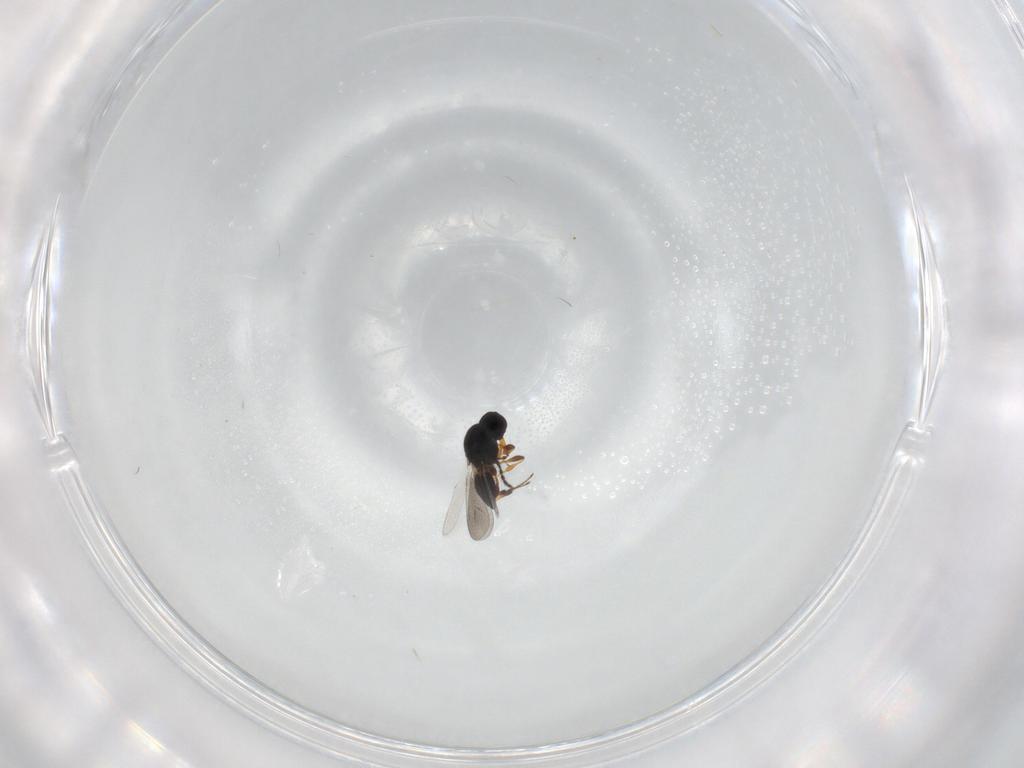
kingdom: Animalia
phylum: Arthropoda
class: Insecta
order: Hymenoptera
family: Platygastridae
